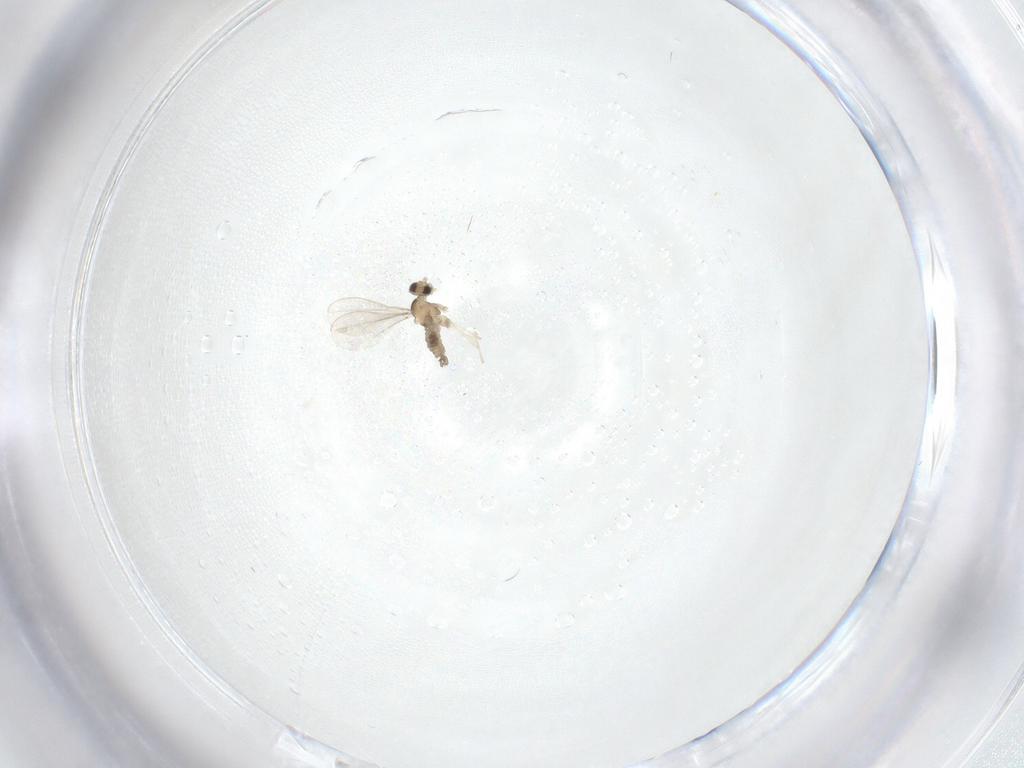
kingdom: Animalia
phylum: Arthropoda
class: Insecta
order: Diptera
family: Cecidomyiidae
